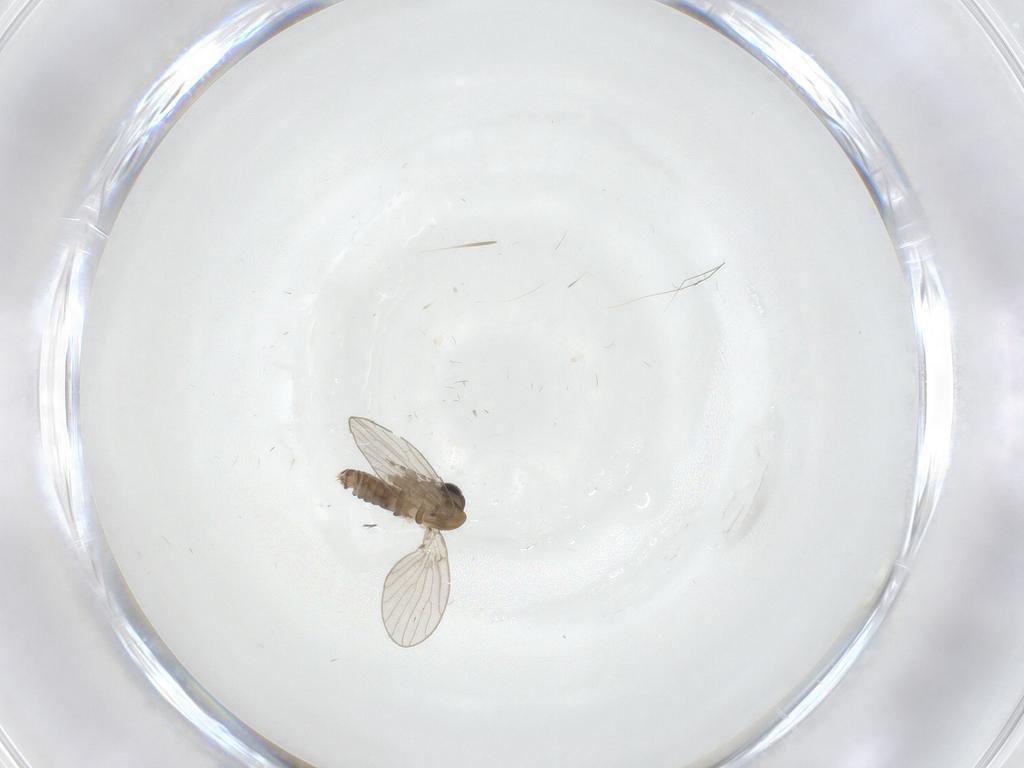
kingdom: Animalia
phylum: Arthropoda
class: Insecta
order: Diptera
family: Psychodidae
